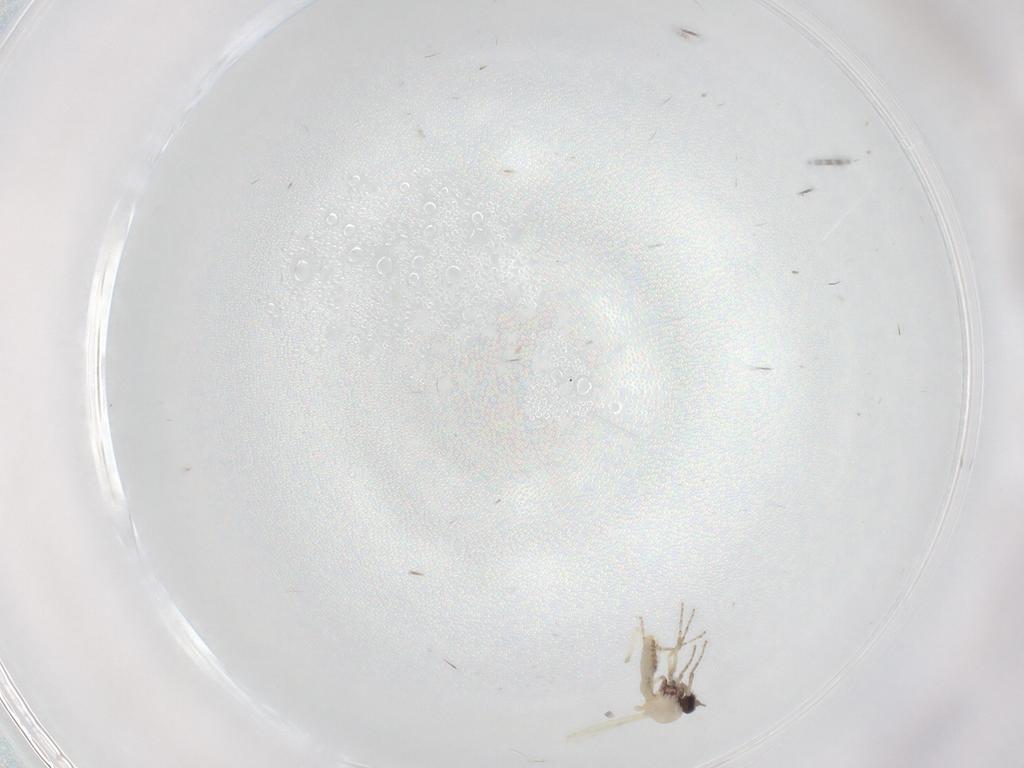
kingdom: Animalia
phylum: Arthropoda
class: Insecta
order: Diptera
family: Ceratopogonidae
